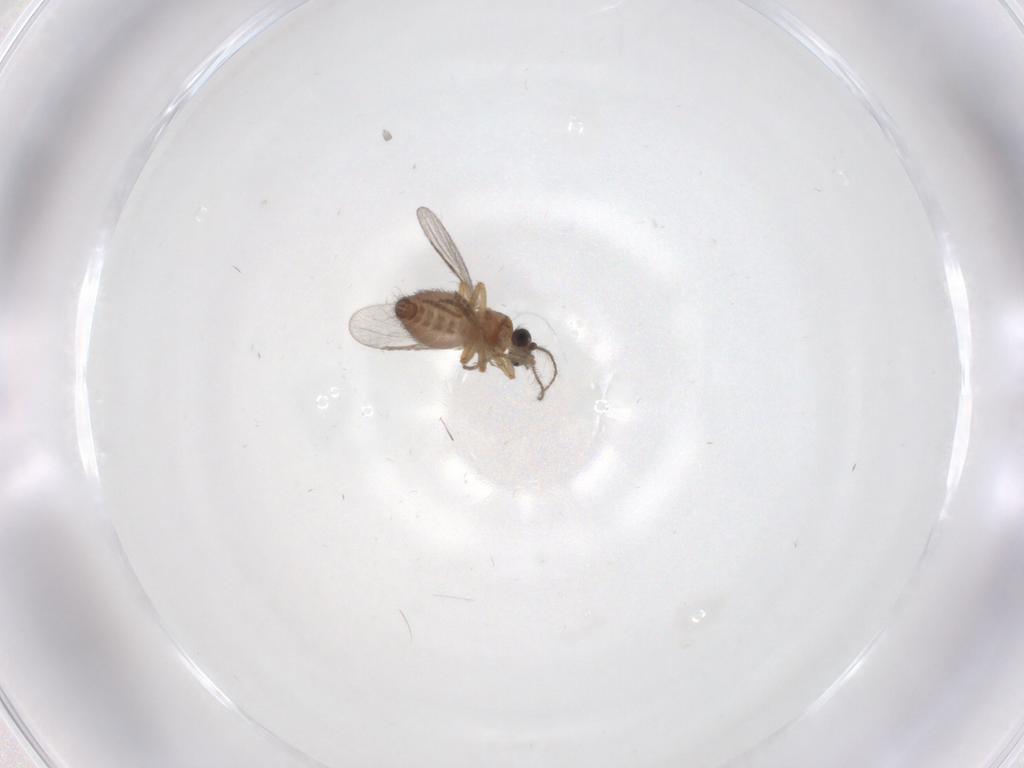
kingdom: Animalia
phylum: Arthropoda
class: Insecta
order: Diptera
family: Ceratopogonidae
